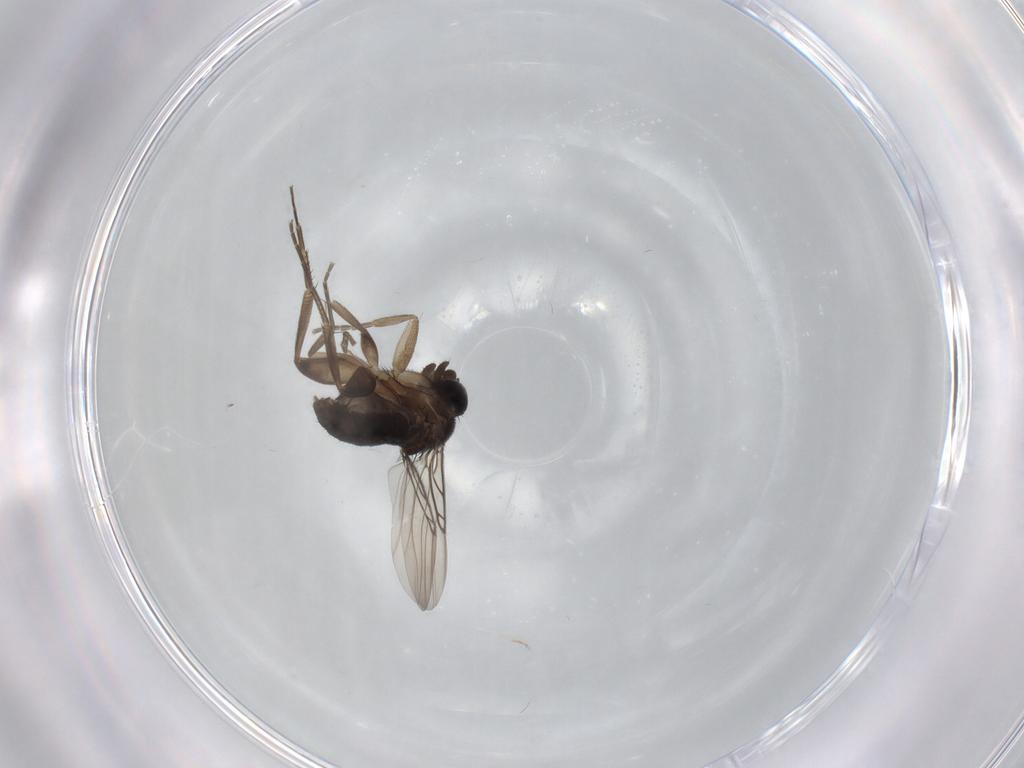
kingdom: Animalia
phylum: Arthropoda
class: Insecta
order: Diptera
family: Phoridae
